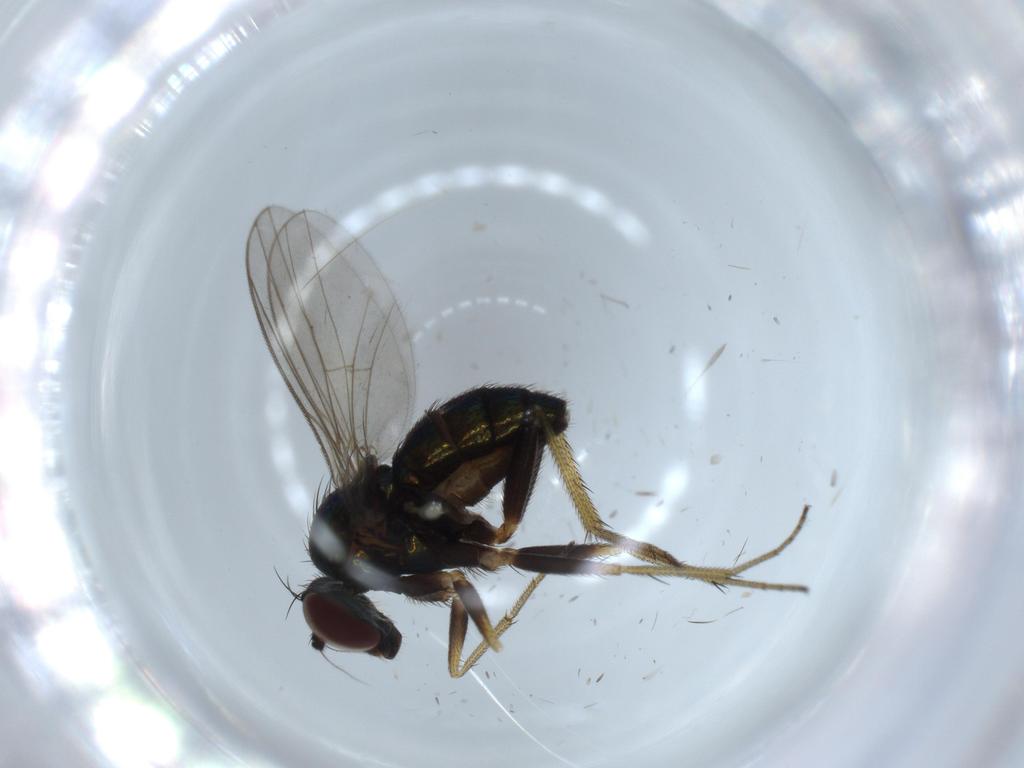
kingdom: Animalia
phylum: Arthropoda
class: Insecta
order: Diptera
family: Dolichopodidae
